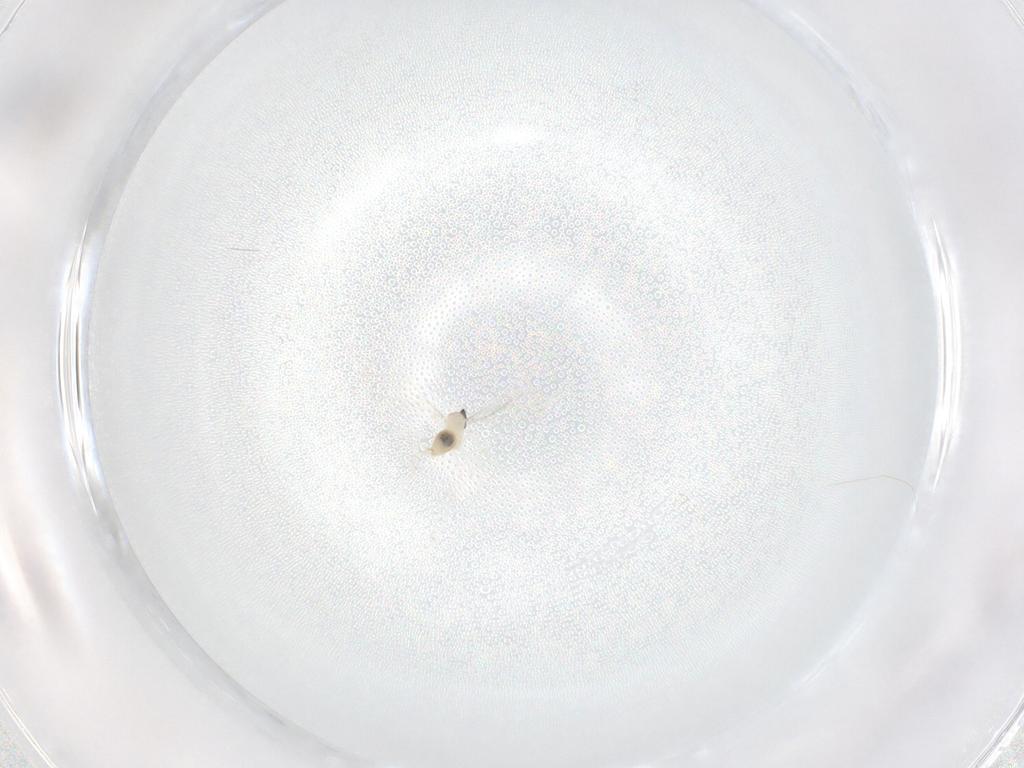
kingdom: Animalia
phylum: Arthropoda
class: Insecta
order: Diptera
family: Cecidomyiidae
